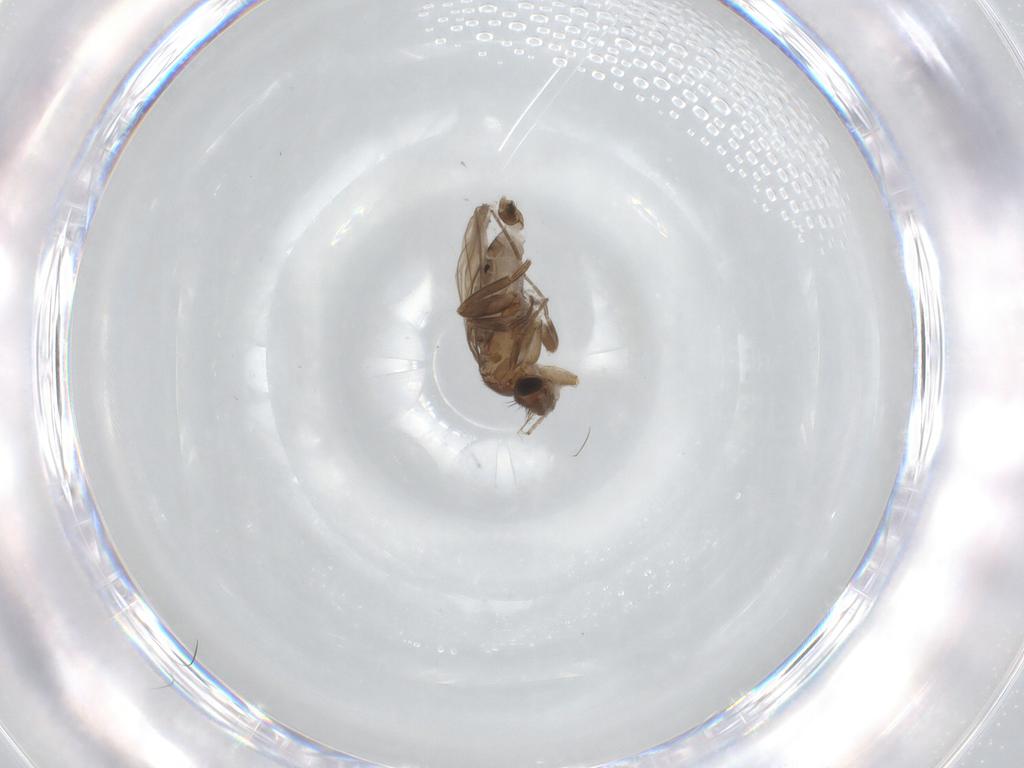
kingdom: Animalia
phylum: Arthropoda
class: Insecta
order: Diptera
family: Phoridae
